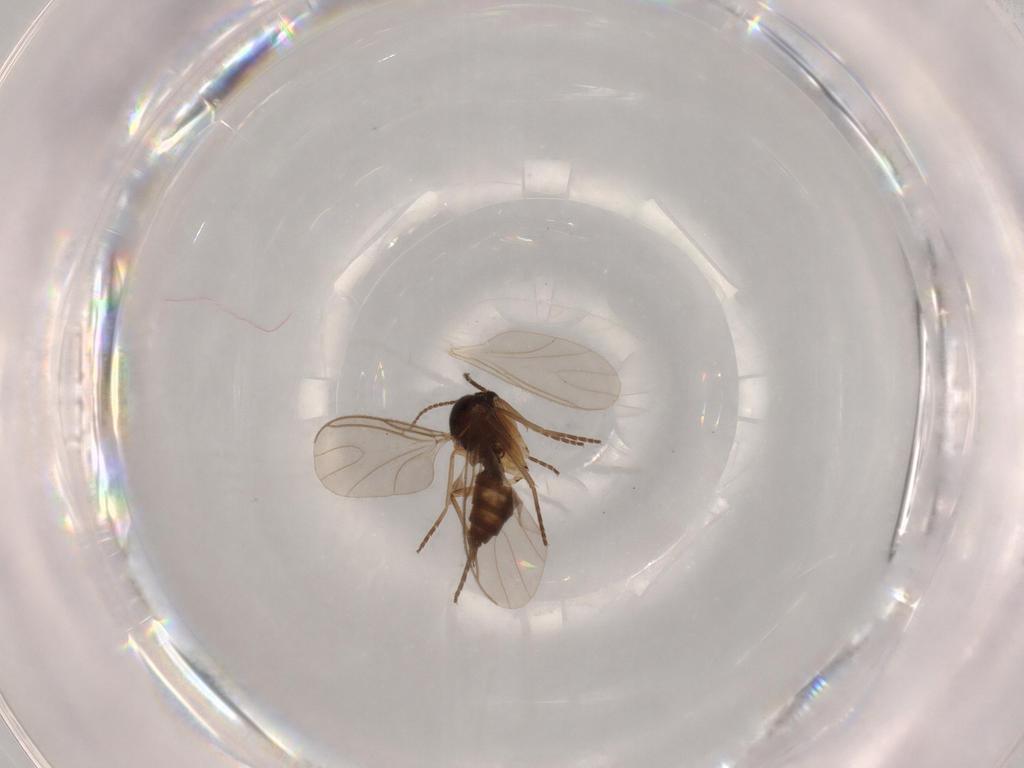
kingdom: Animalia
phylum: Arthropoda
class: Insecta
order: Diptera
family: Sciaridae
